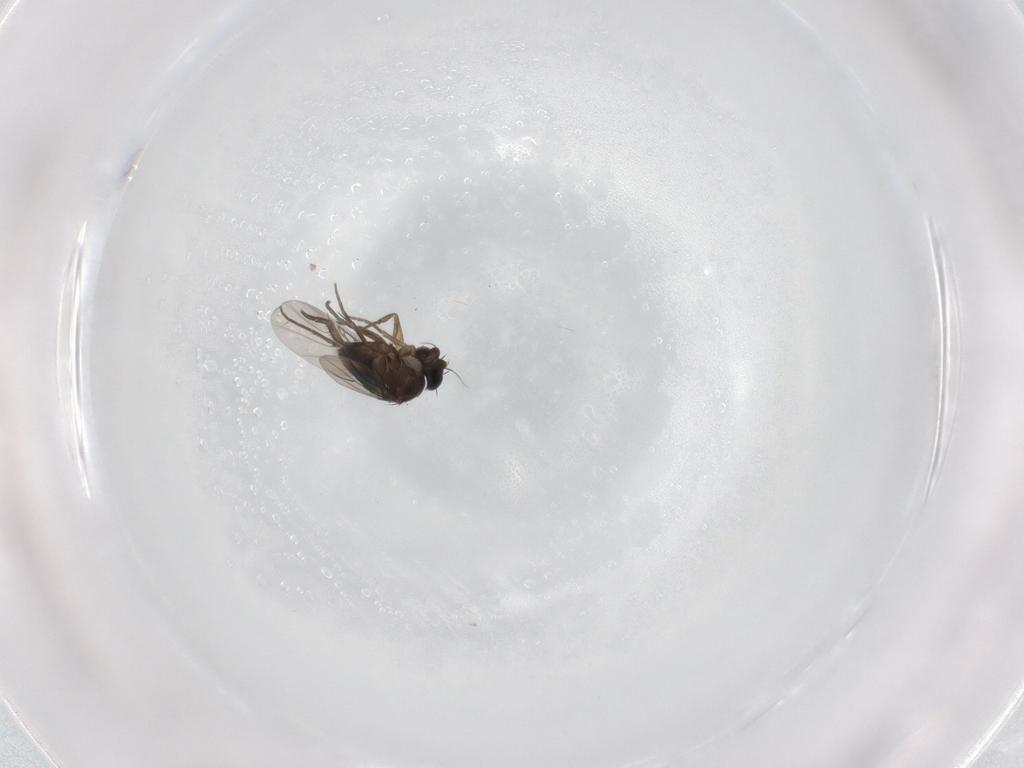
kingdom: Animalia
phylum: Arthropoda
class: Insecta
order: Diptera
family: Phoridae
